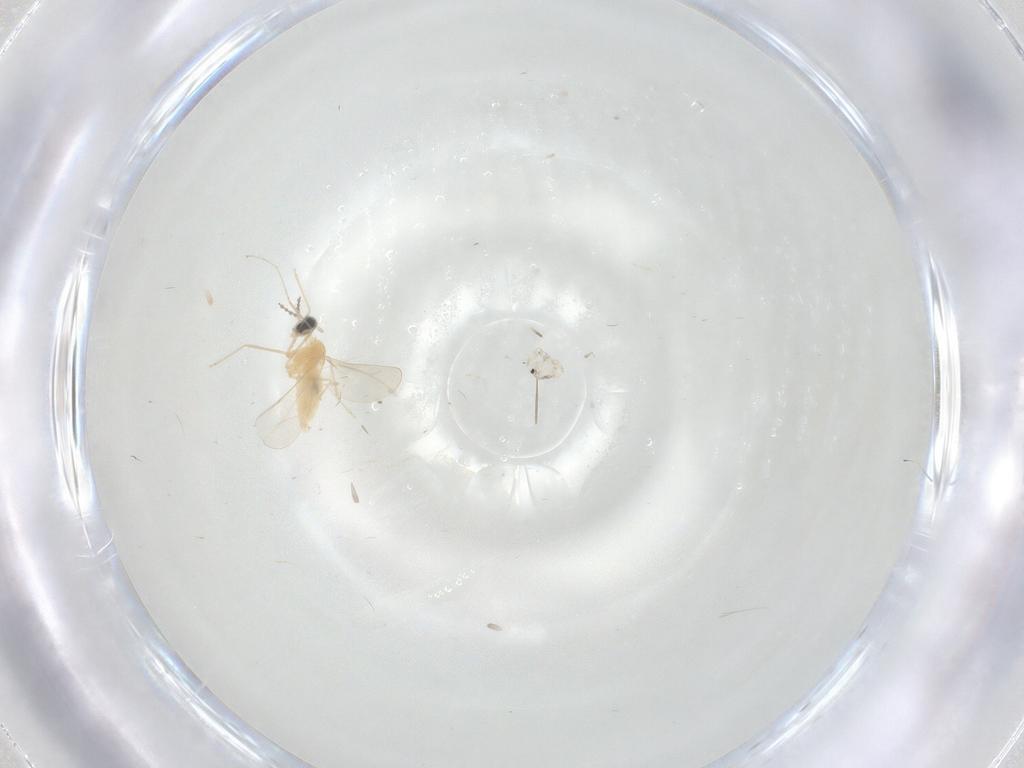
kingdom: Animalia
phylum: Arthropoda
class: Insecta
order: Diptera
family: Cecidomyiidae
